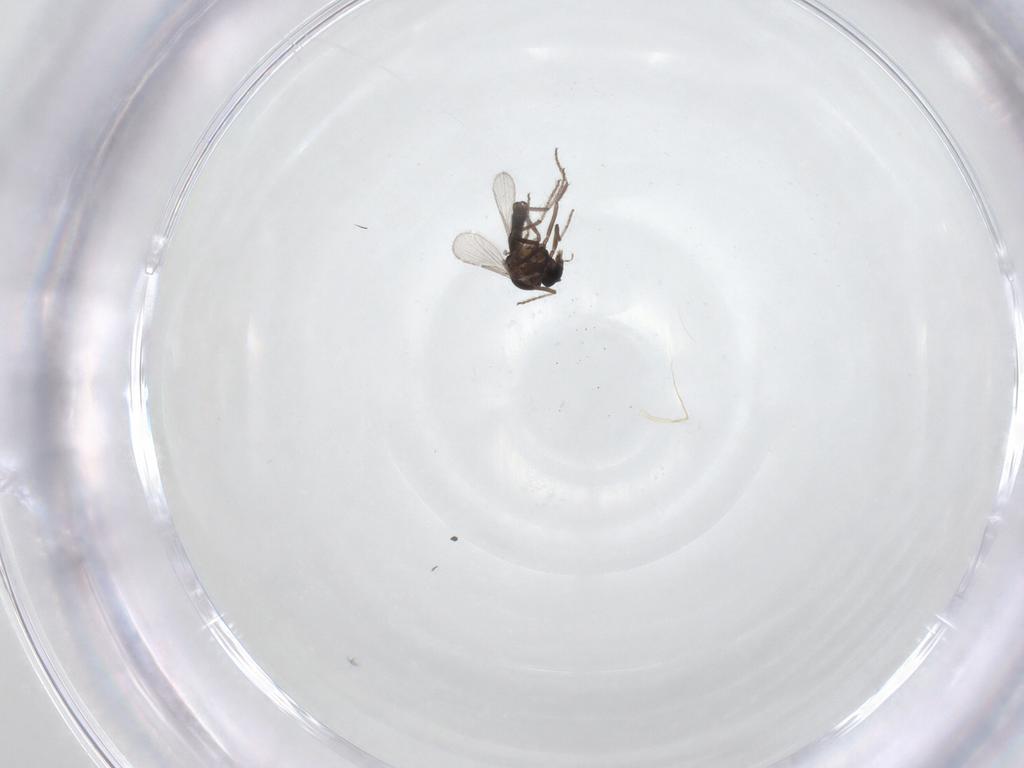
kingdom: Animalia
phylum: Arthropoda
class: Insecta
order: Diptera
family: Ceratopogonidae
